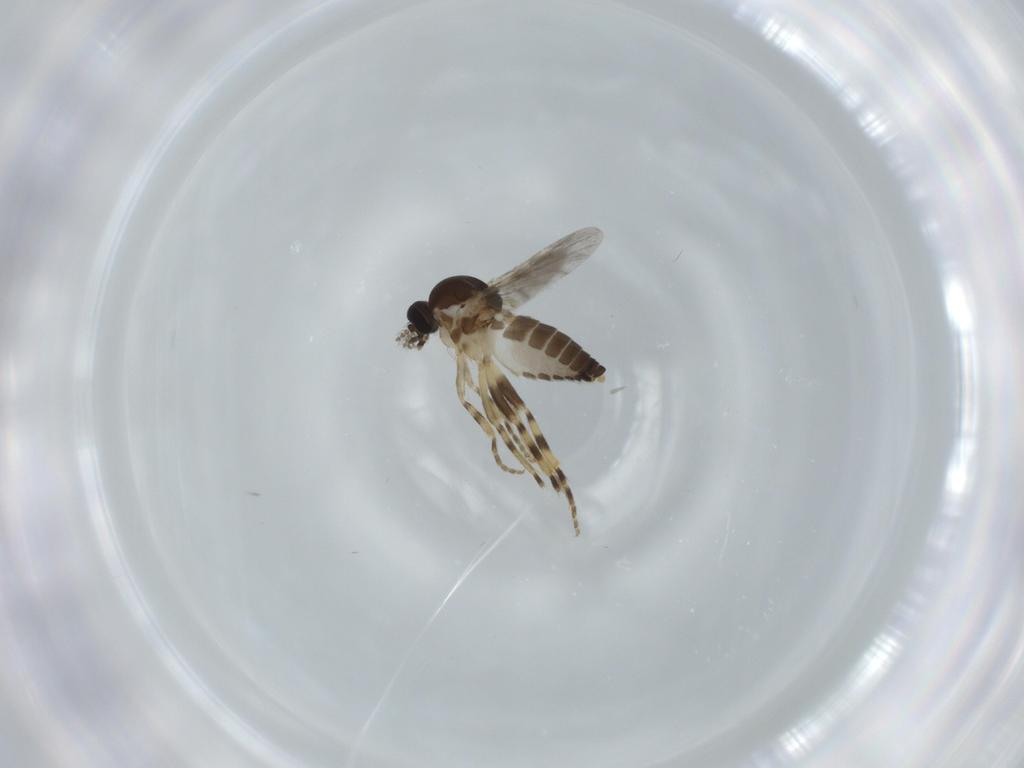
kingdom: Animalia
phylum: Arthropoda
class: Insecta
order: Diptera
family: Ceratopogonidae
